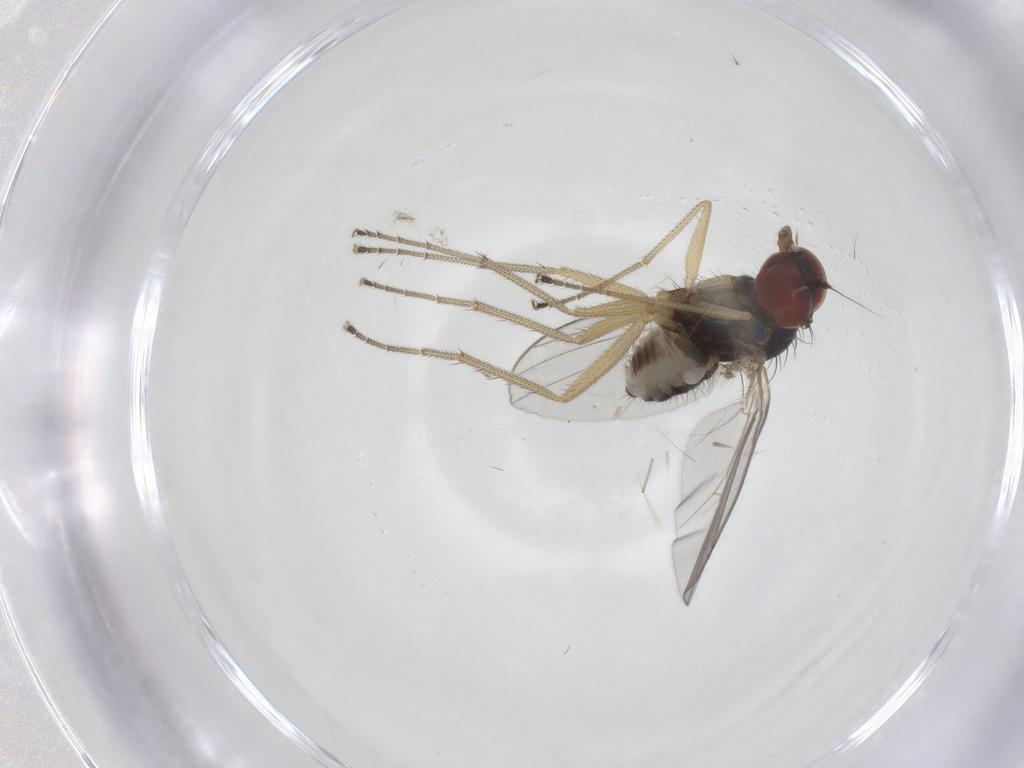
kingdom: Animalia
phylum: Arthropoda
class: Insecta
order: Diptera
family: Dolichopodidae
